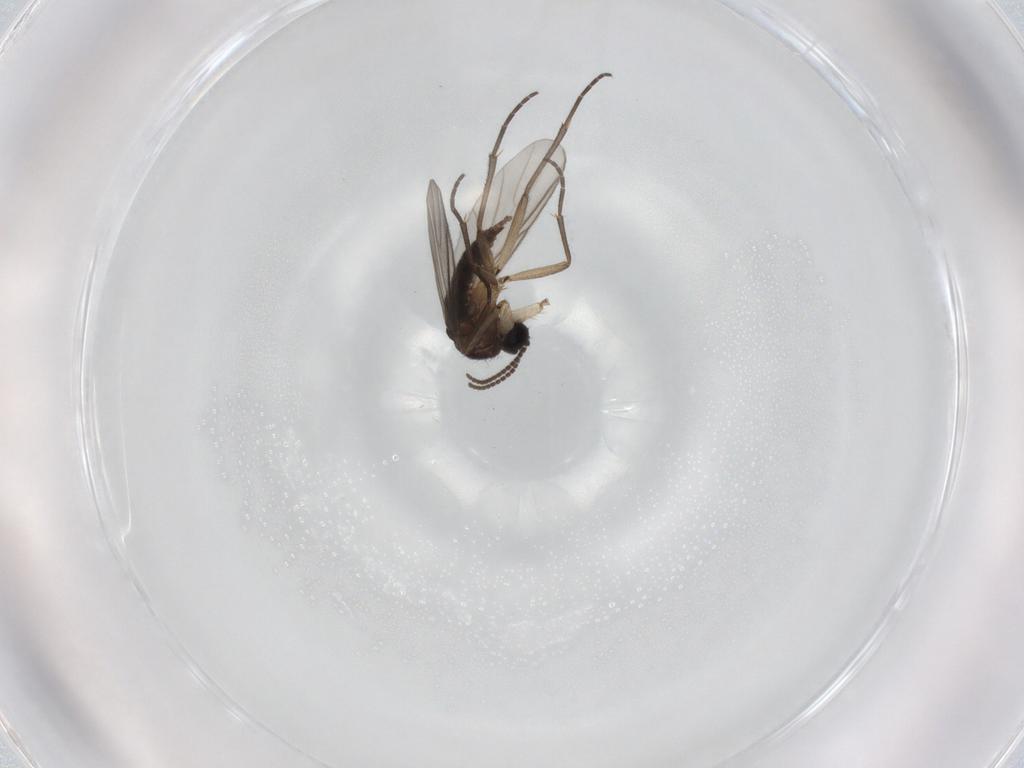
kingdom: Animalia
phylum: Arthropoda
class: Insecta
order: Diptera
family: Sciaridae
